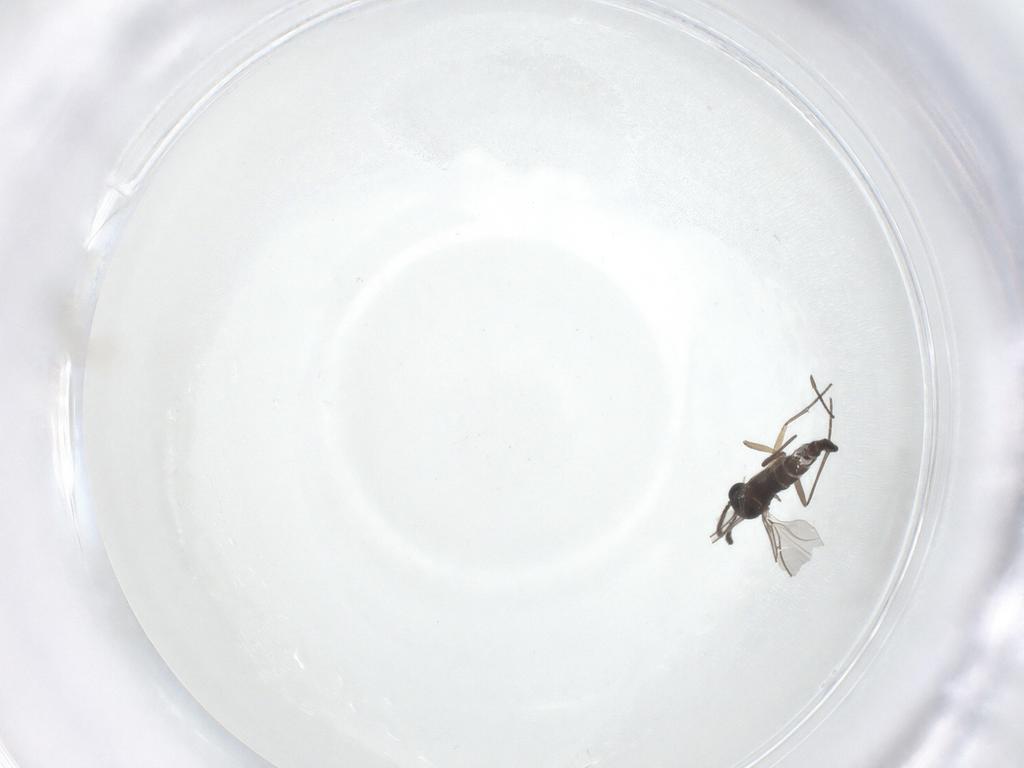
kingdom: Animalia
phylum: Arthropoda
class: Insecta
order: Diptera
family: Sciaridae
